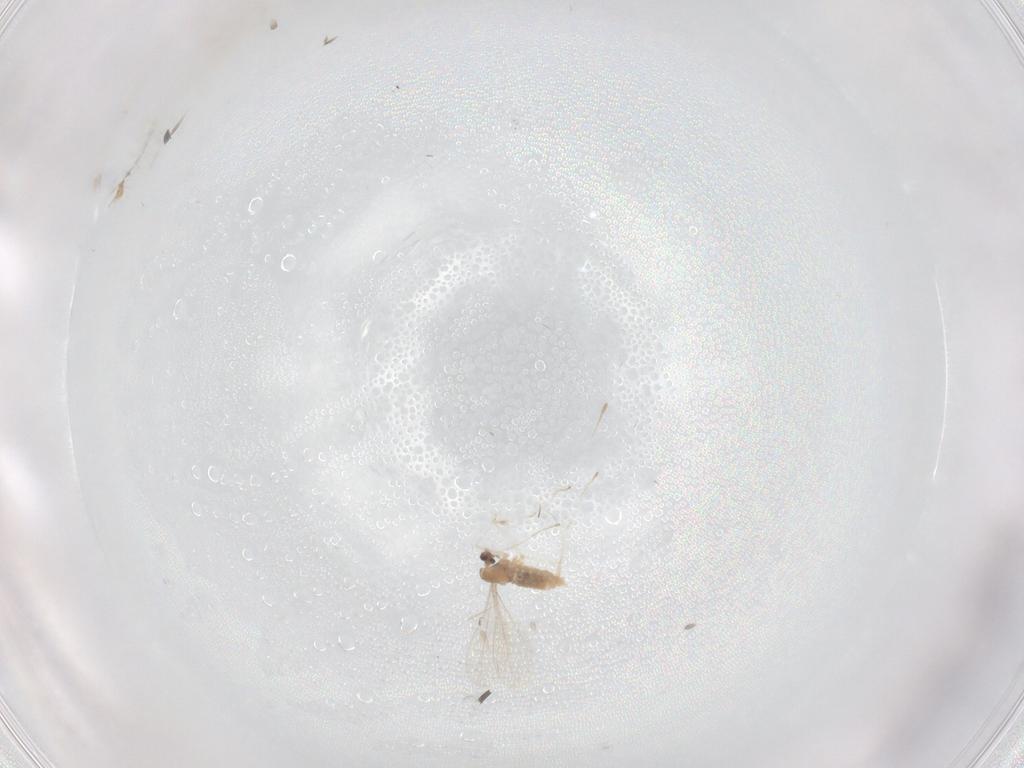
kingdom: Animalia
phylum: Arthropoda
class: Insecta
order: Diptera
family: Cecidomyiidae
